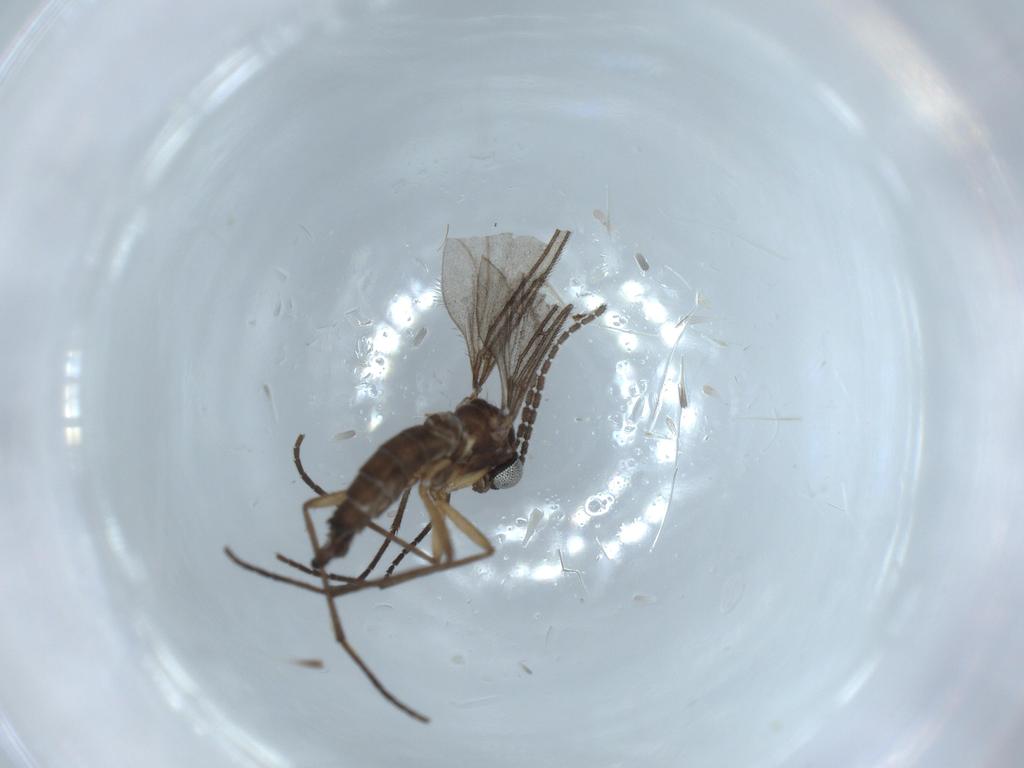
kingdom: Animalia
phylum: Arthropoda
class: Insecta
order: Diptera
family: Sciaridae
